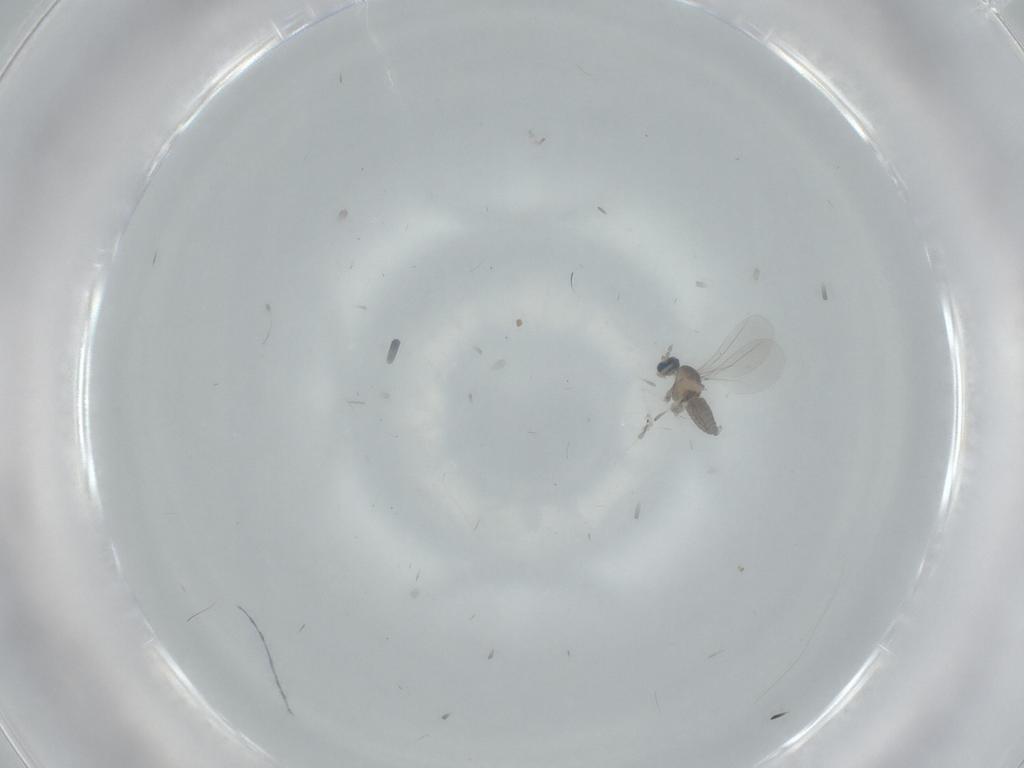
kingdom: Animalia
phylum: Arthropoda
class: Insecta
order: Diptera
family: Cecidomyiidae
